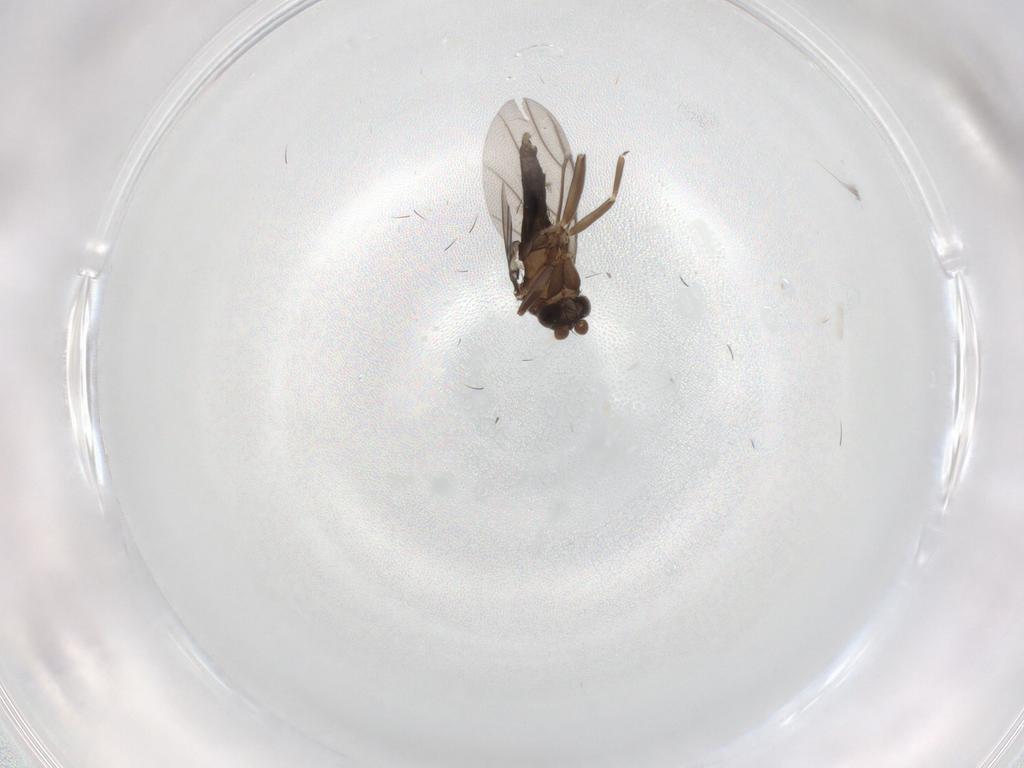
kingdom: Animalia
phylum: Arthropoda
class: Insecta
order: Diptera
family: Tabanidae
